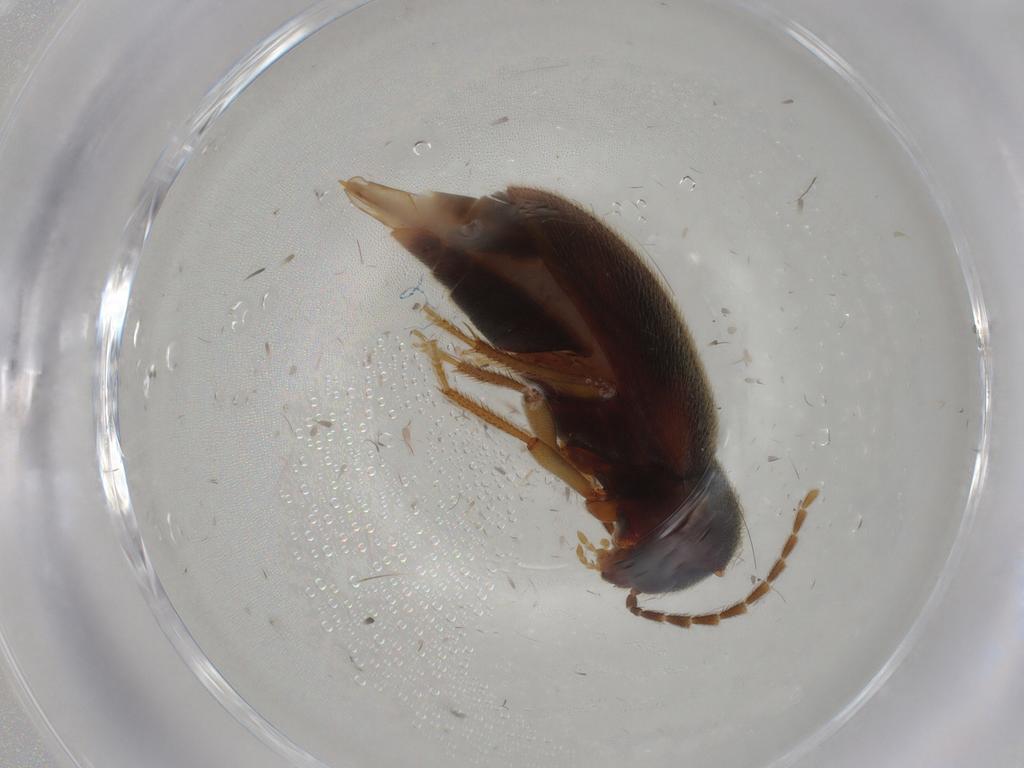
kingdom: Animalia
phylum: Arthropoda
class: Insecta
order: Coleoptera
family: Ptilodactylidae
